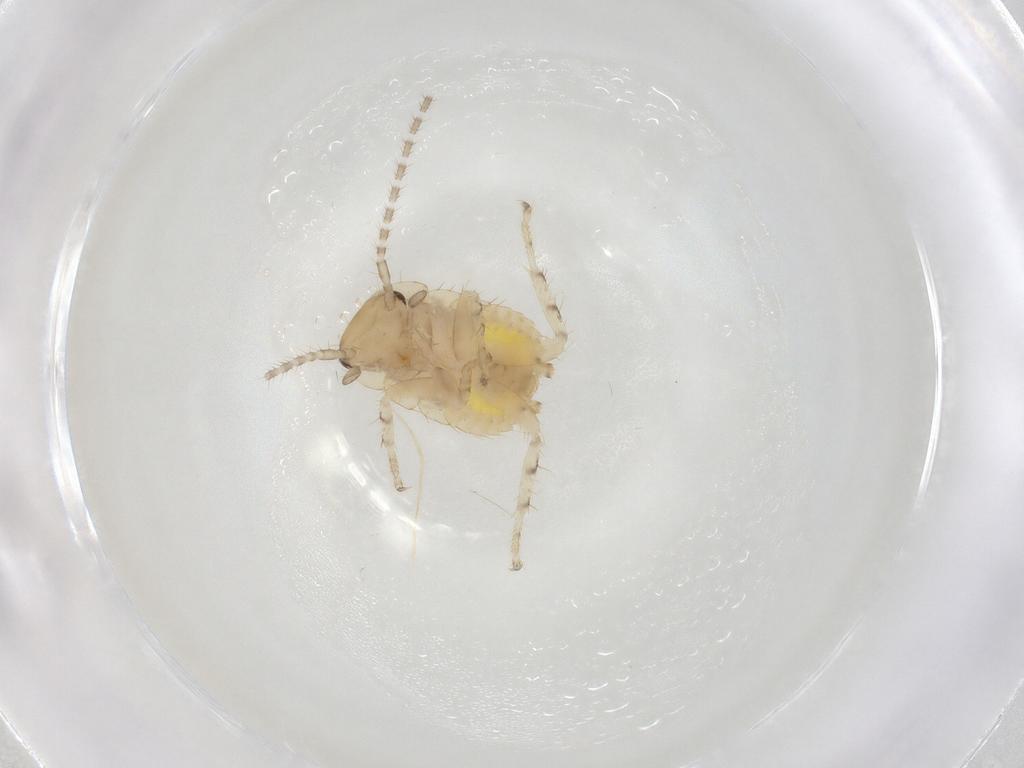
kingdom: Animalia
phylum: Arthropoda
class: Insecta
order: Blattodea
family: Ectobiidae
